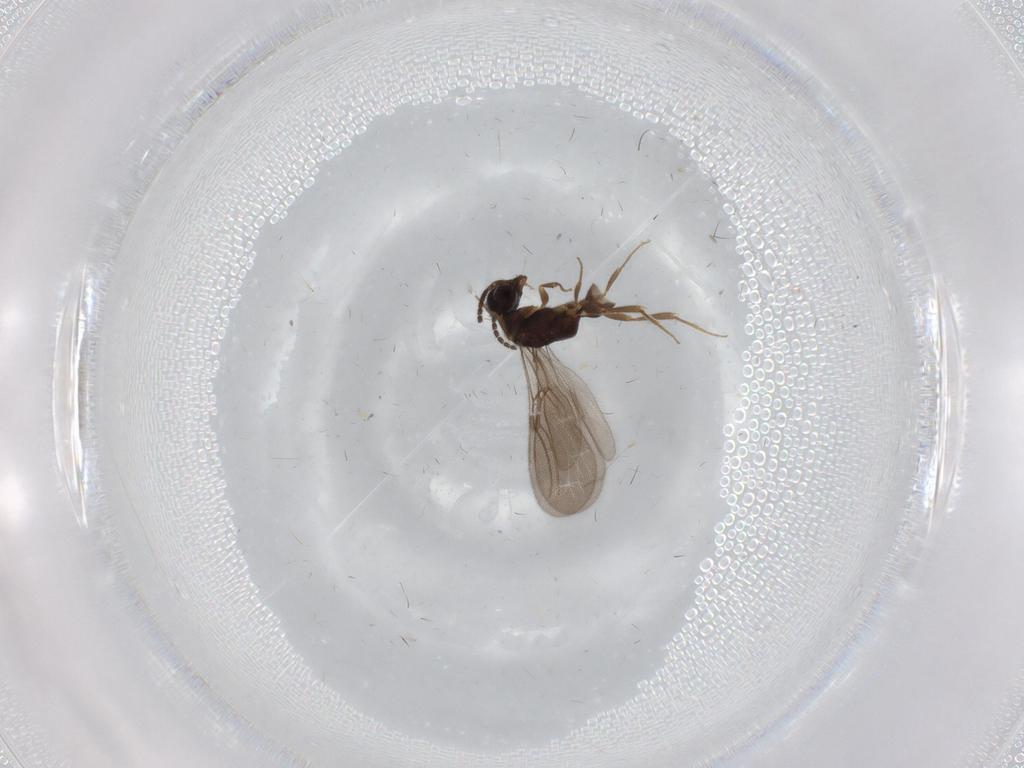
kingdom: Animalia
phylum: Arthropoda
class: Insecta
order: Hymenoptera
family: Bethylidae
